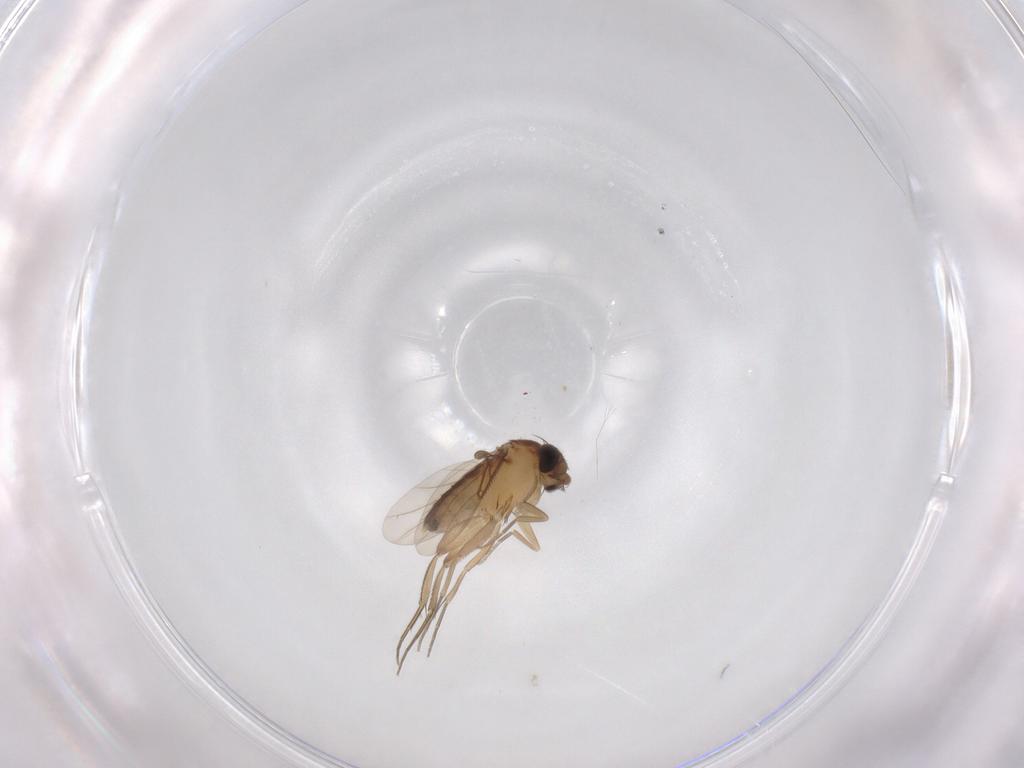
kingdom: Animalia
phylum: Arthropoda
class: Insecta
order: Diptera
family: Phoridae
